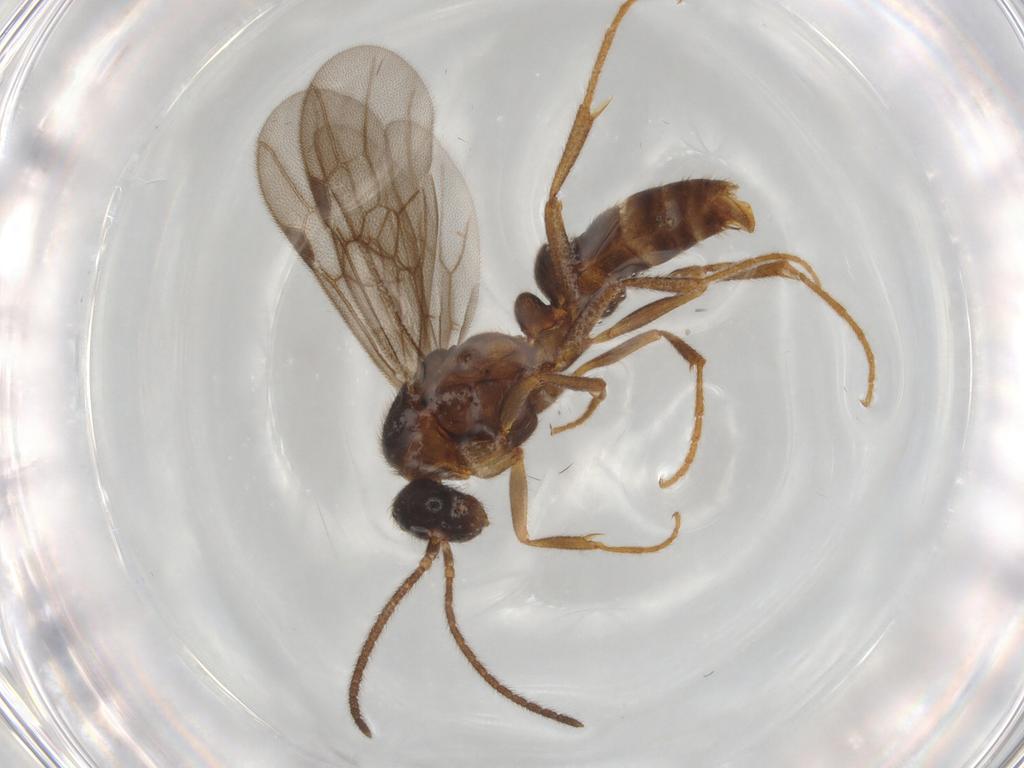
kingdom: Animalia
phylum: Arthropoda
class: Insecta
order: Hymenoptera
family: Formicidae
